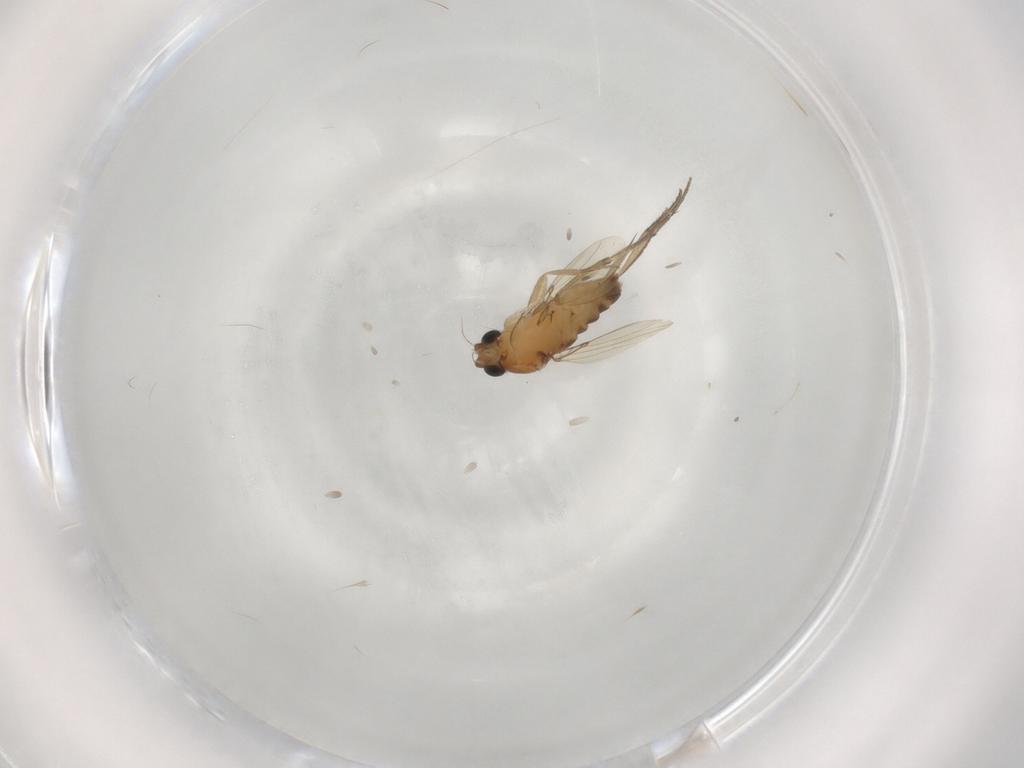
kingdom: Animalia
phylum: Arthropoda
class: Insecta
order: Diptera
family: Phoridae
